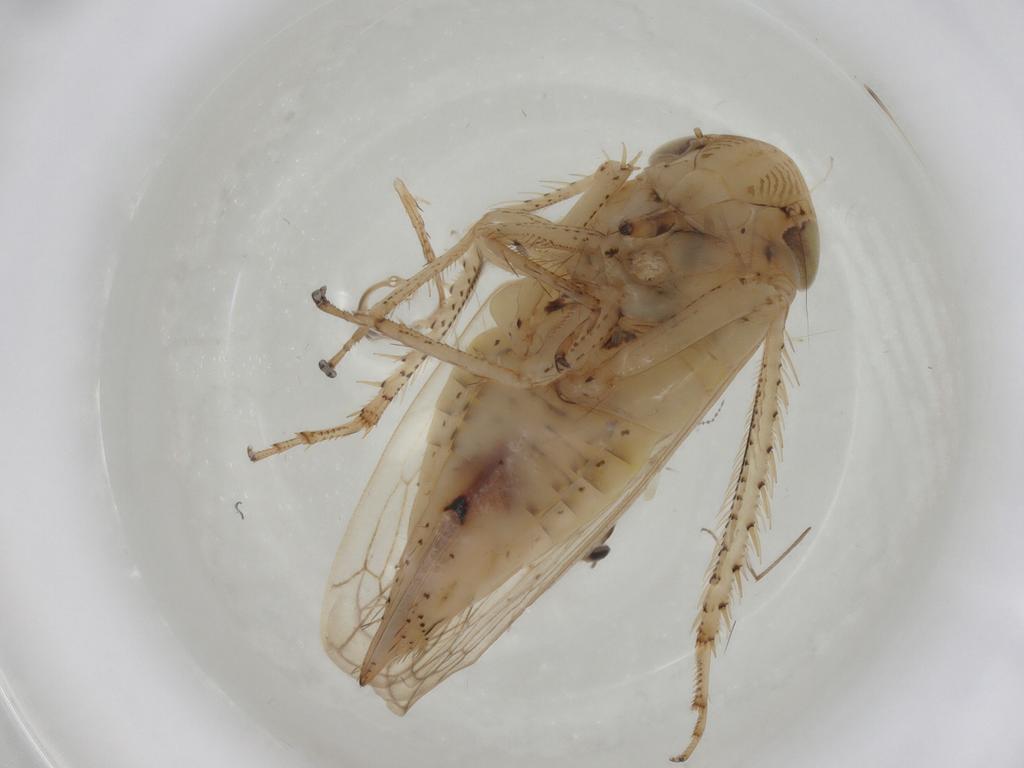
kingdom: Animalia
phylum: Arthropoda
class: Insecta
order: Hemiptera
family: Cicadellidae
